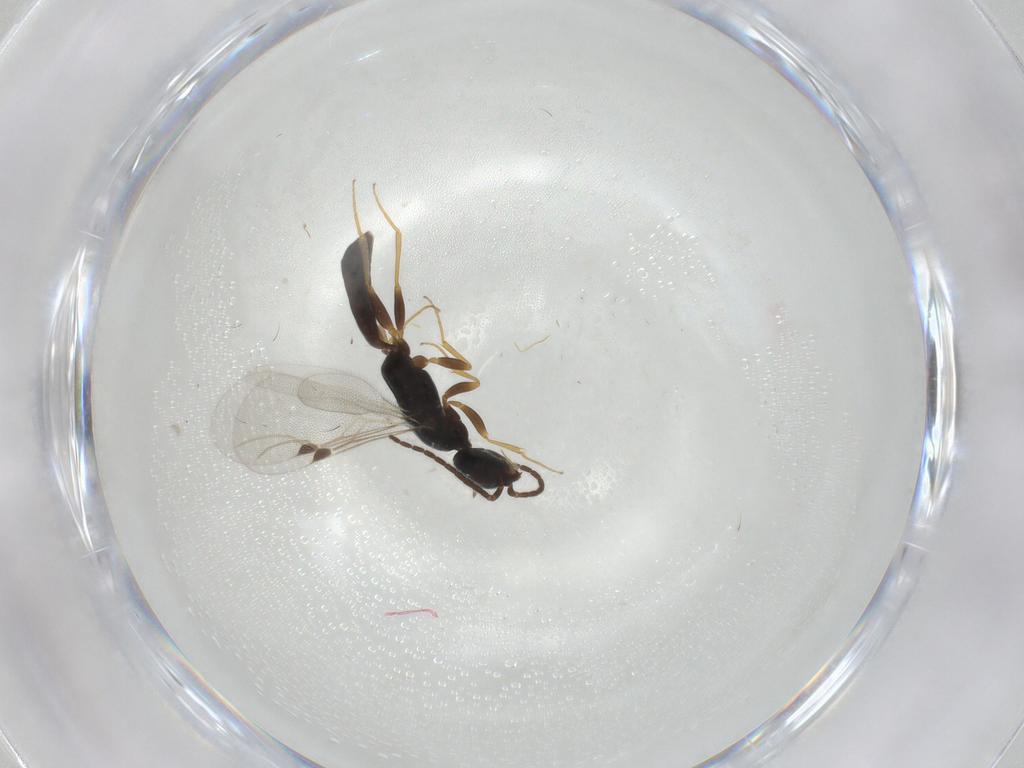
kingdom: Animalia
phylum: Arthropoda
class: Insecta
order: Hymenoptera
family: Bethylidae
